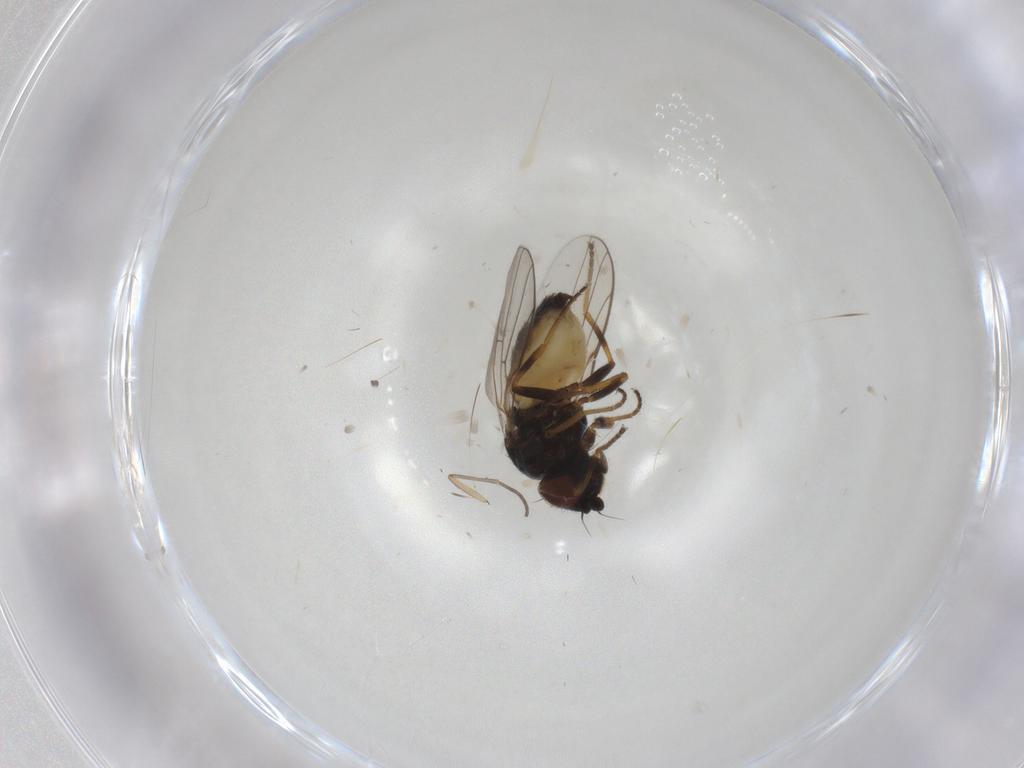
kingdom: Animalia
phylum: Arthropoda
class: Insecta
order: Diptera
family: Chloropidae
